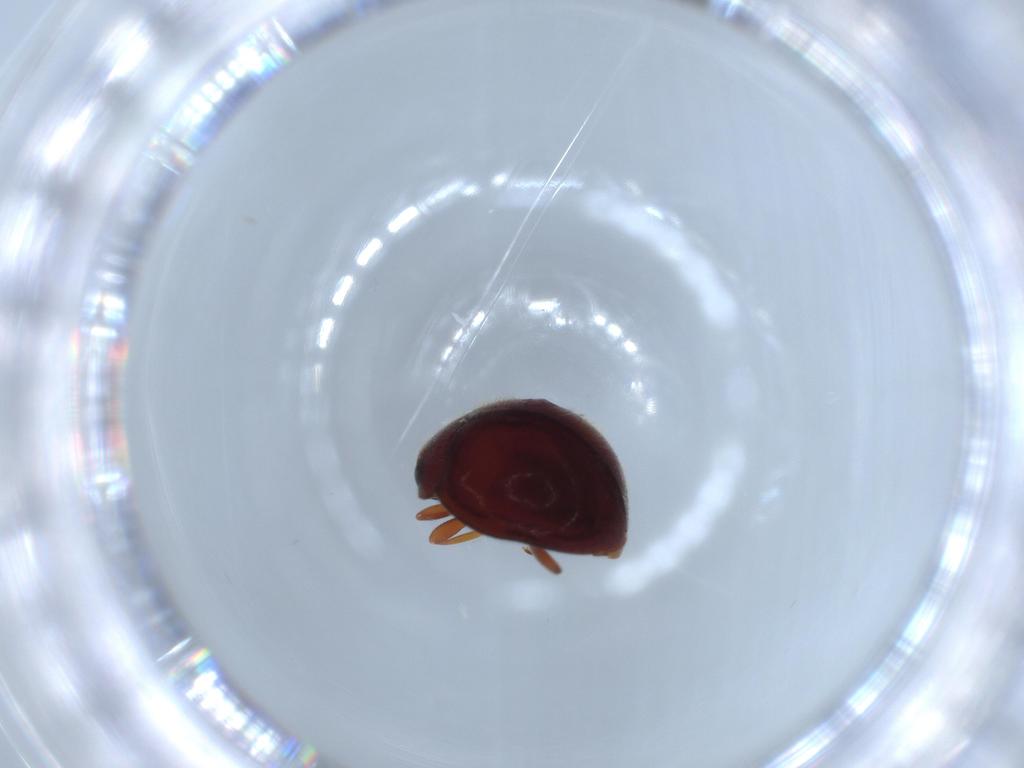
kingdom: Animalia
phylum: Arthropoda
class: Insecta
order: Coleoptera
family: Coccinellidae
